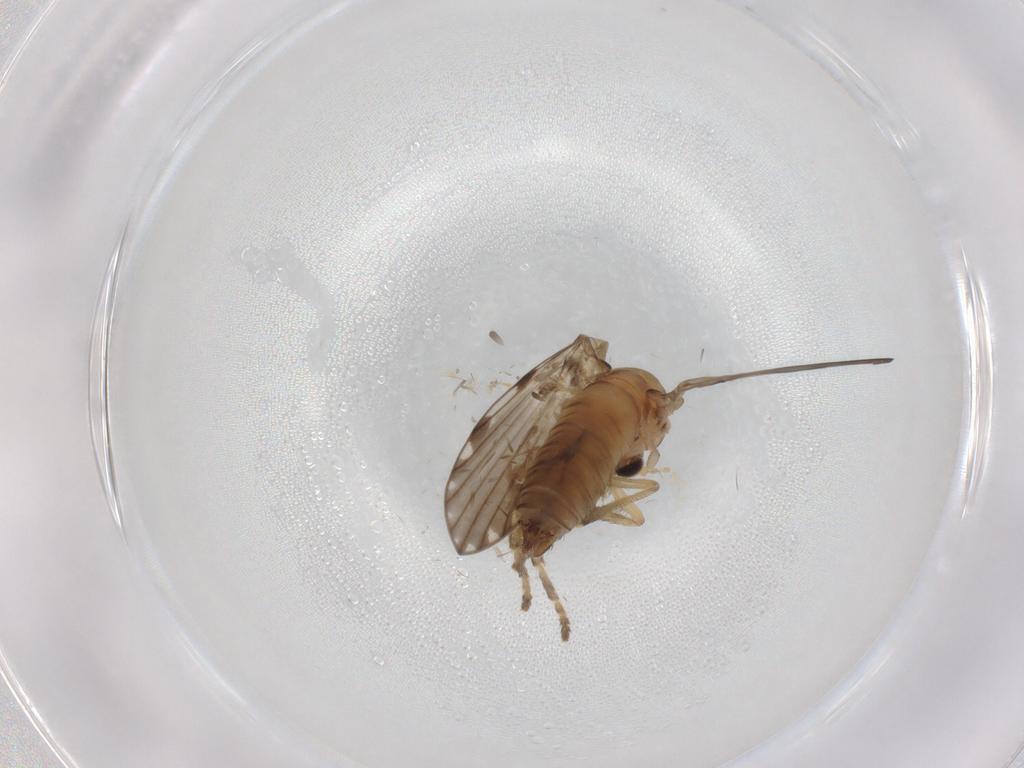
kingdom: Animalia
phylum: Arthropoda
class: Insecta
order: Diptera
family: Psychodidae
